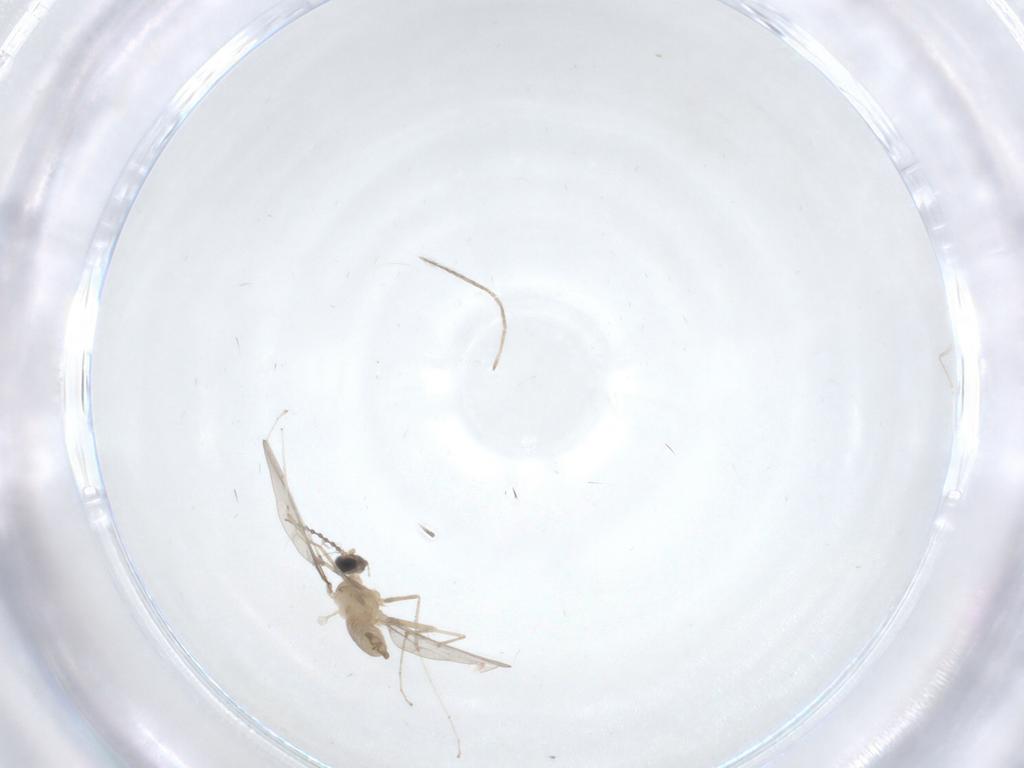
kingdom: Animalia
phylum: Arthropoda
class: Insecta
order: Diptera
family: Cecidomyiidae
